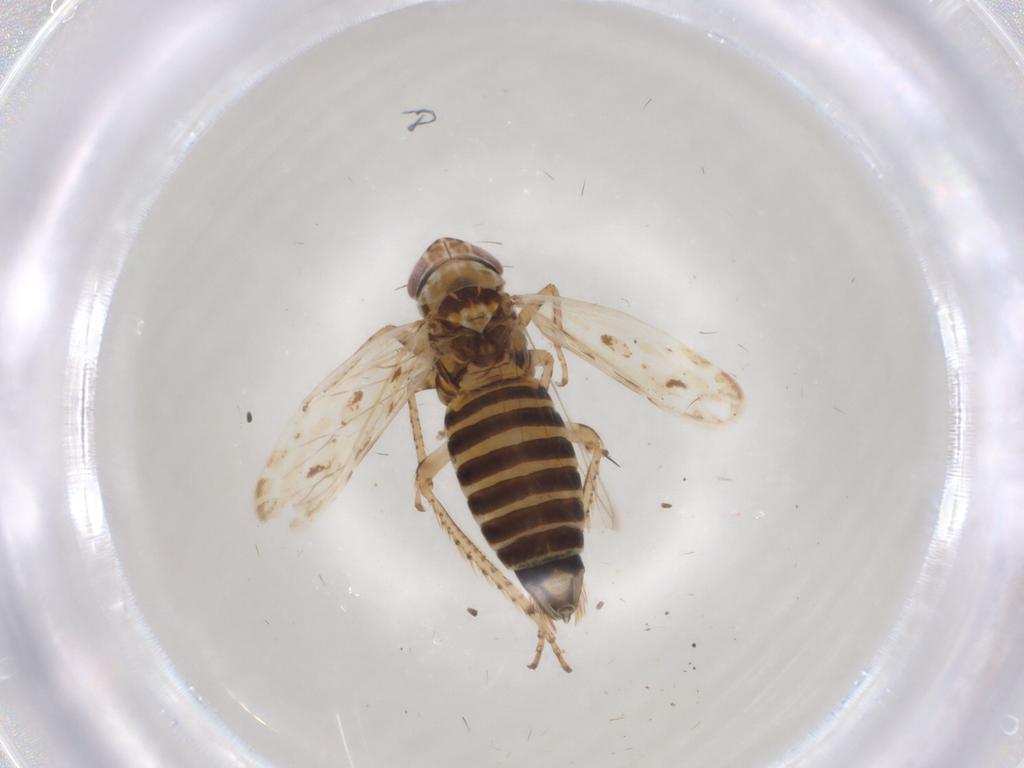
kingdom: Animalia
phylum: Arthropoda
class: Insecta
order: Hemiptera
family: Cicadellidae
